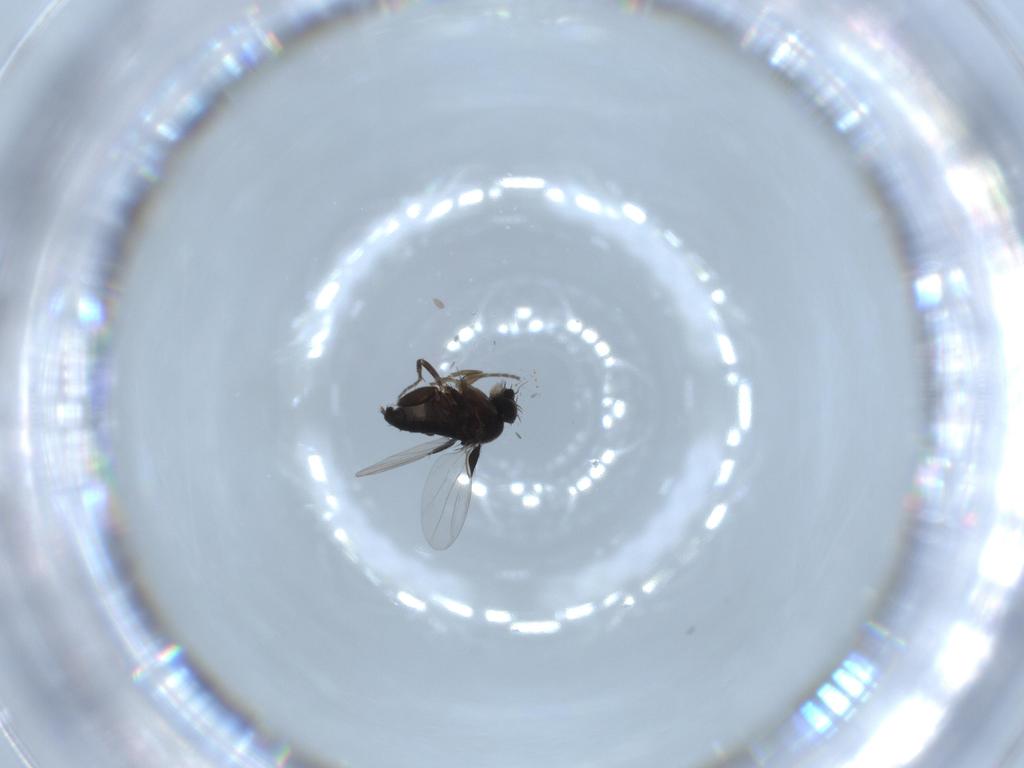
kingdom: Animalia
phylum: Arthropoda
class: Insecta
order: Diptera
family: Phoridae
